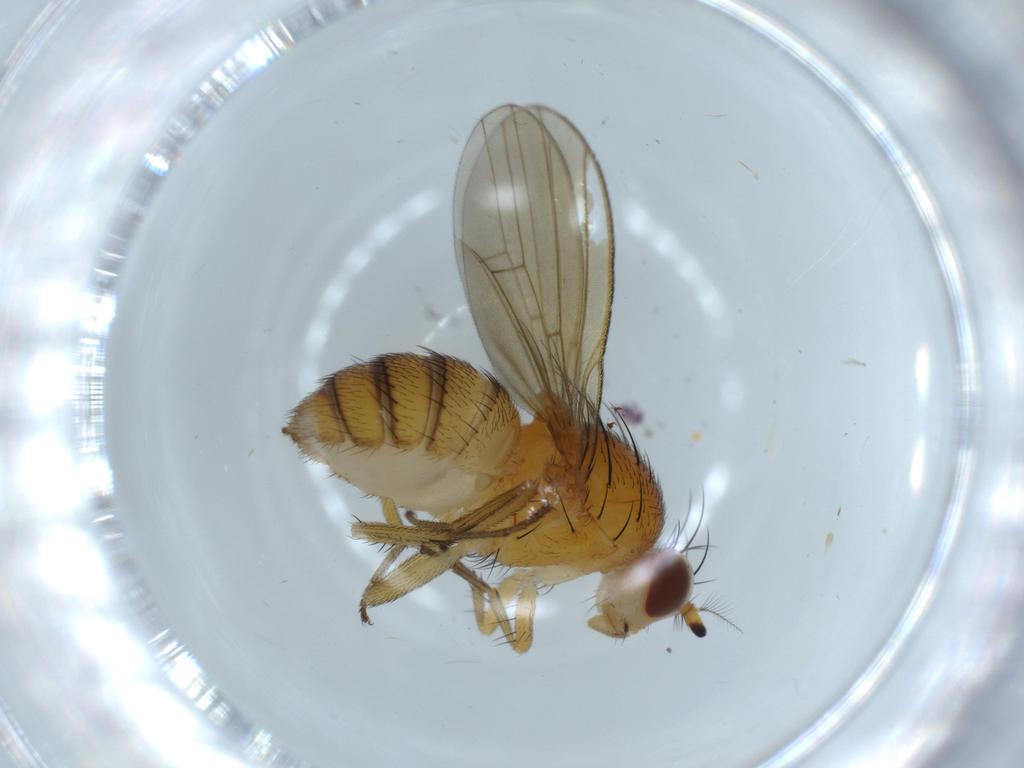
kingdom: Animalia
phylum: Arthropoda
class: Insecta
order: Diptera
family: Lauxaniidae
